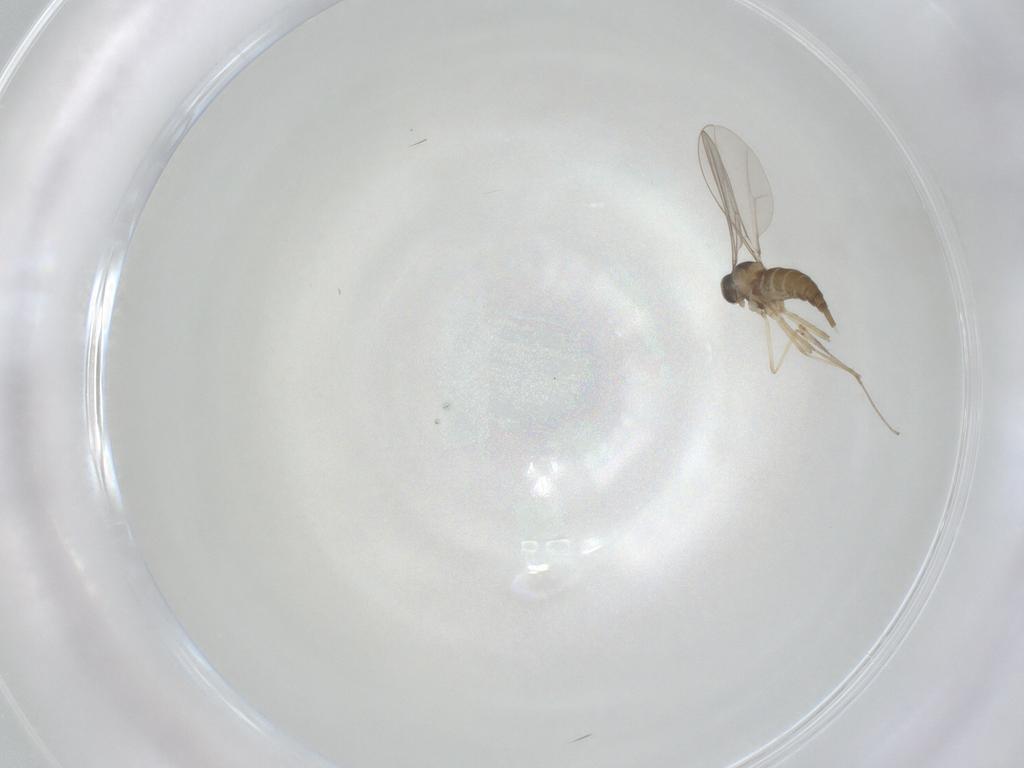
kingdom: Animalia
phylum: Arthropoda
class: Insecta
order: Diptera
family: Cecidomyiidae
